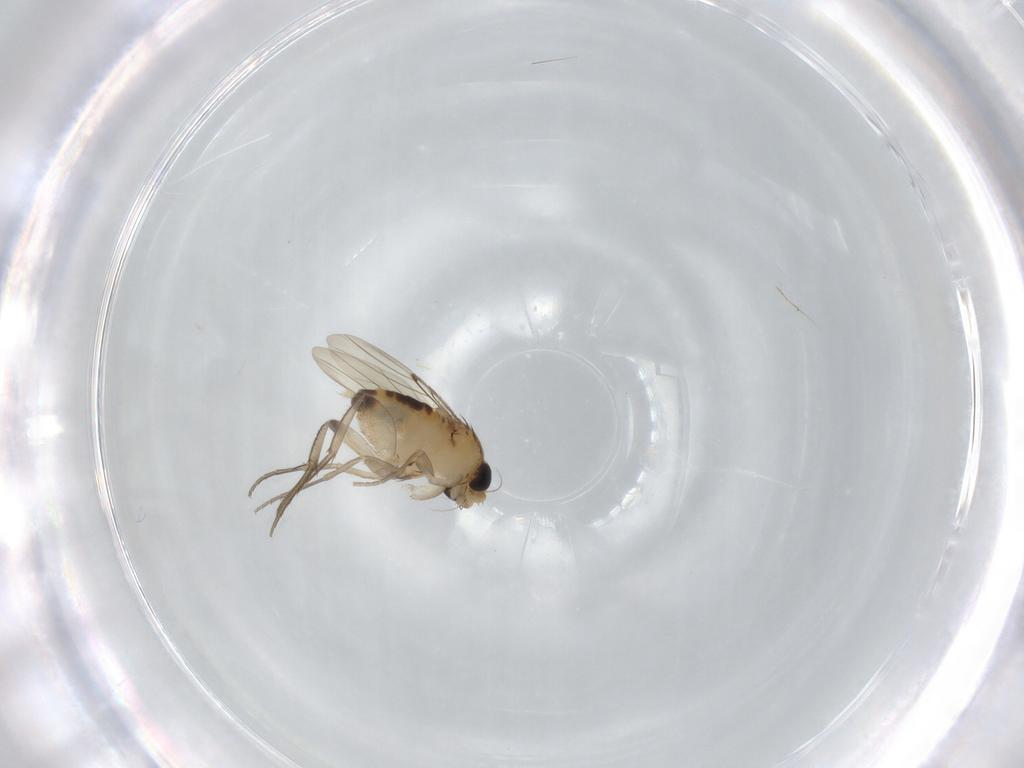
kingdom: Animalia
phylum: Arthropoda
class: Insecta
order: Diptera
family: Phoridae
